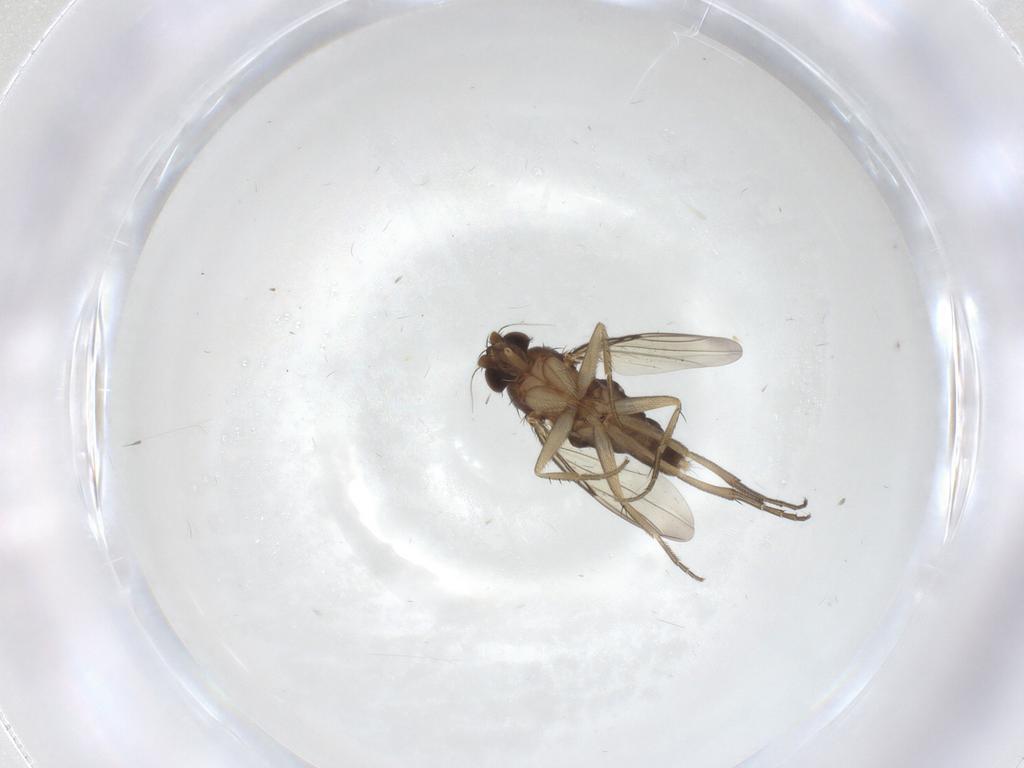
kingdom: Animalia
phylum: Arthropoda
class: Insecta
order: Diptera
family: Phoridae
